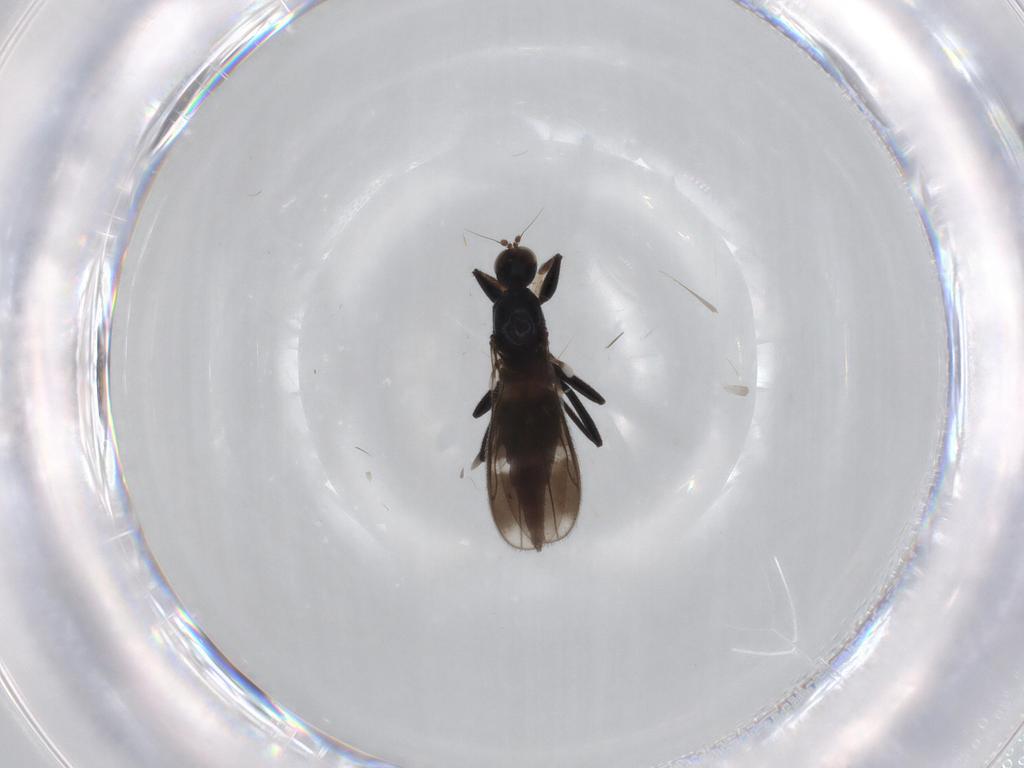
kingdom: Animalia
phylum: Arthropoda
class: Insecta
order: Diptera
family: Hybotidae
